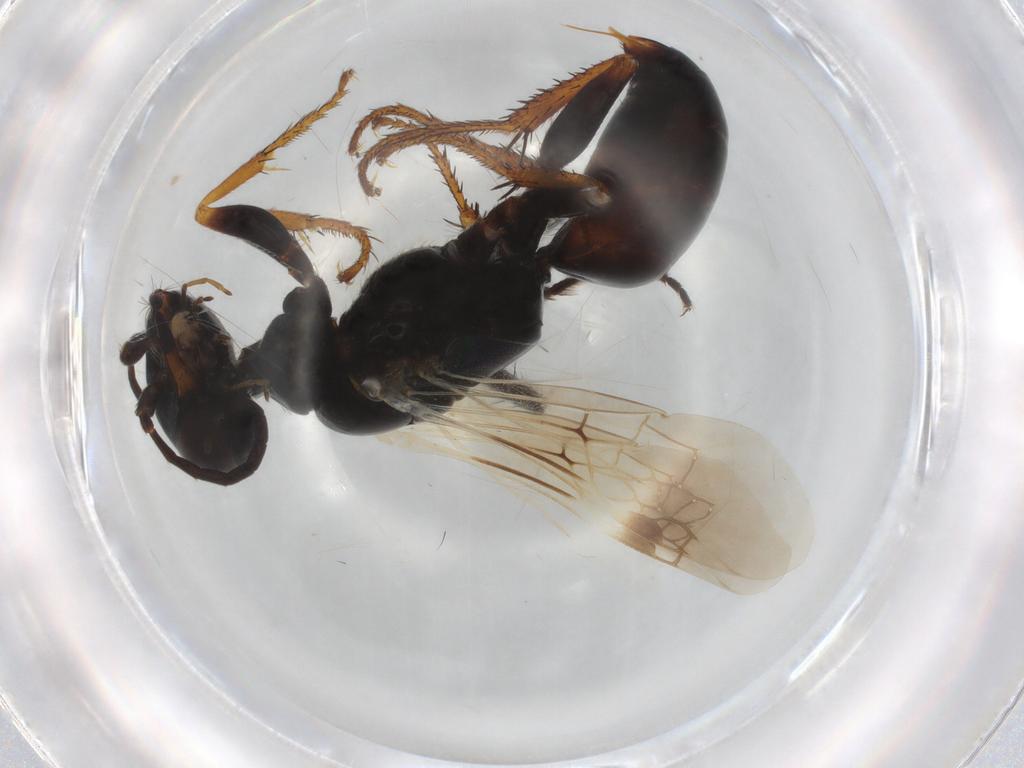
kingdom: Animalia
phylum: Arthropoda
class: Insecta
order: Hymenoptera
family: Crabronidae
